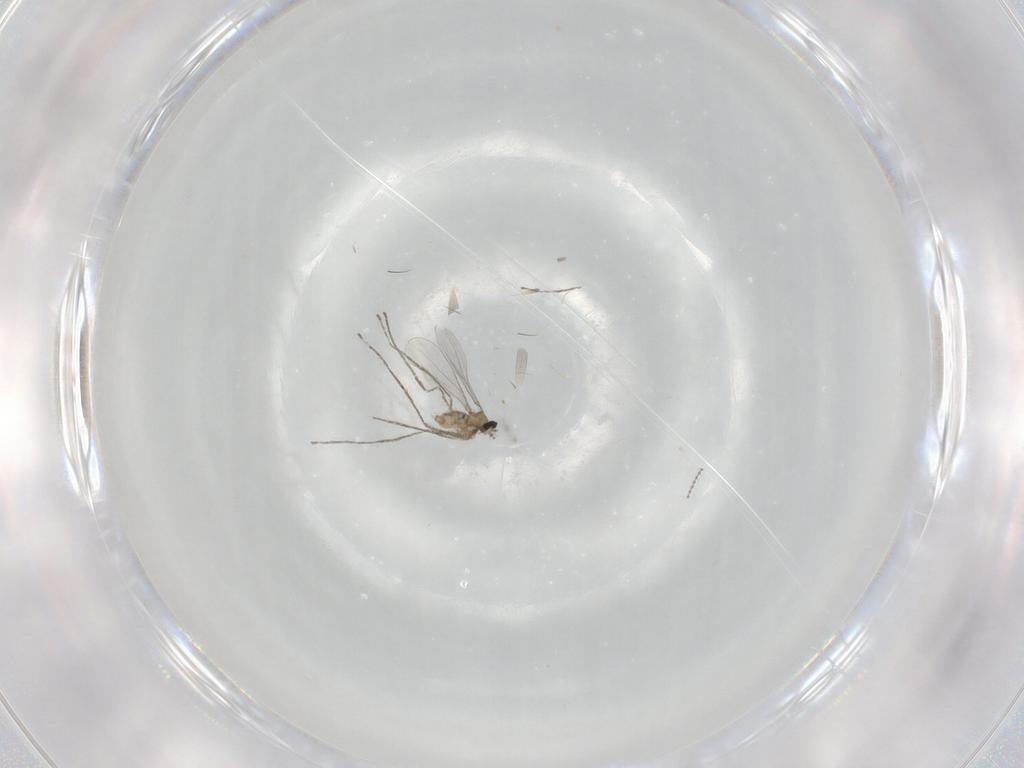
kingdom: Animalia
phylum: Arthropoda
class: Insecta
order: Diptera
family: Cecidomyiidae
